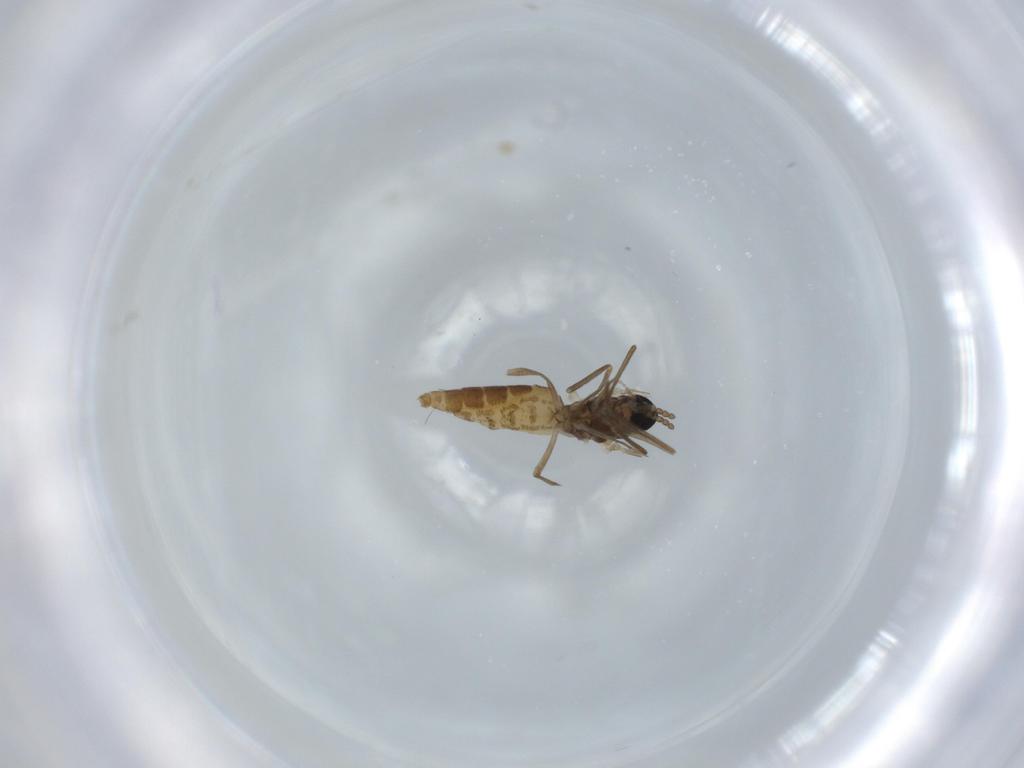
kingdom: Animalia
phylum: Arthropoda
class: Insecta
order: Diptera
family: Cecidomyiidae
